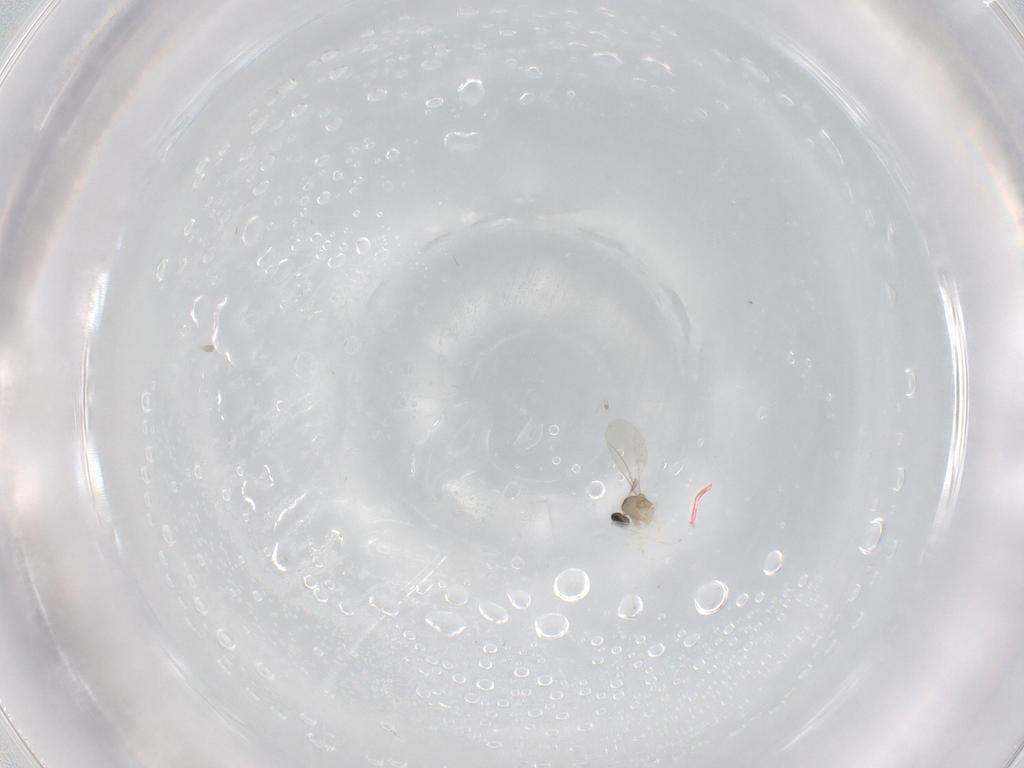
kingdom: Animalia
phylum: Arthropoda
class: Insecta
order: Diptera
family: Cecidomyiidae
